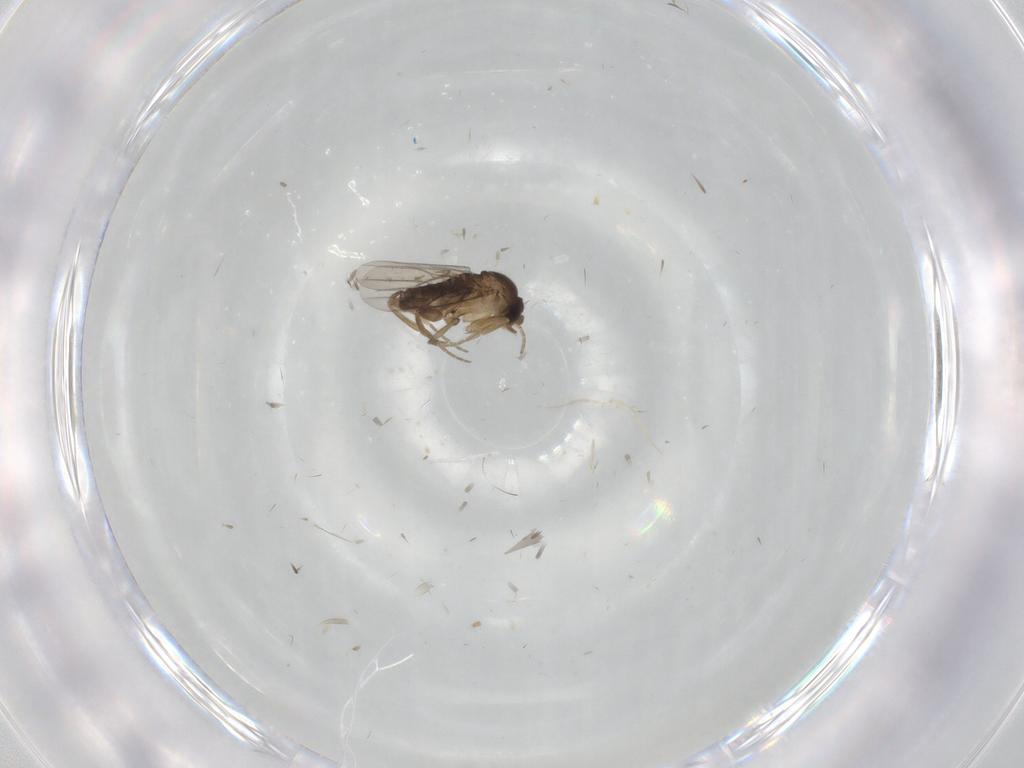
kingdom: Animalia
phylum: Arthropoda
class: Insecta
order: Diptera
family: Phoridae
